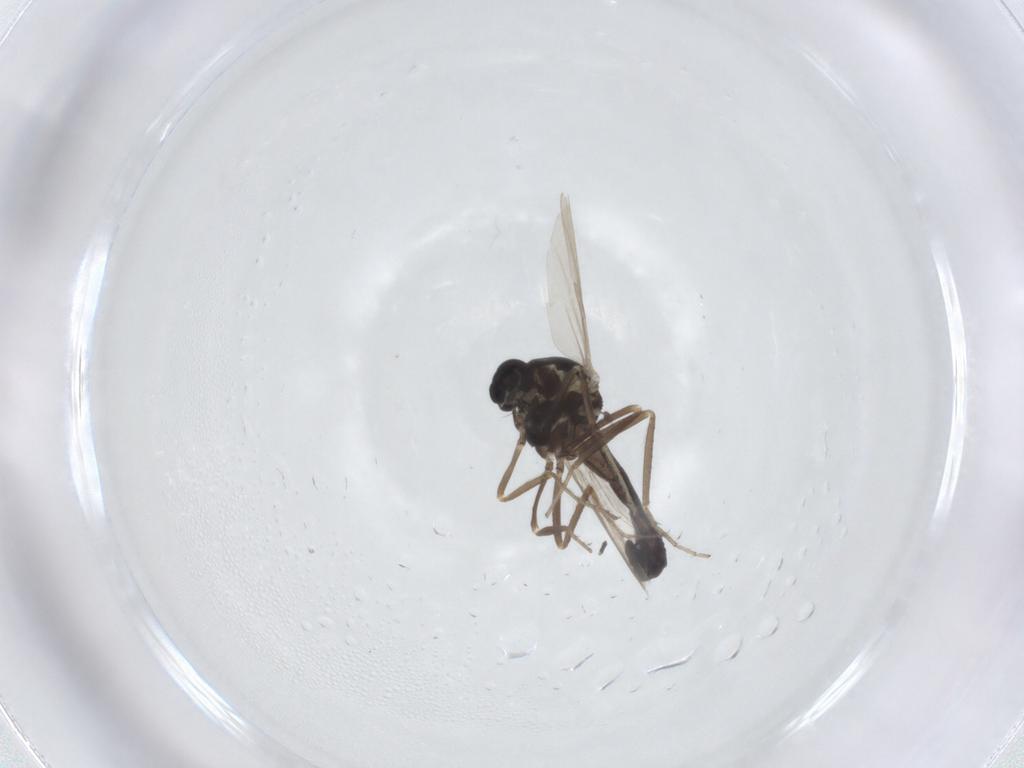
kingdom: Animalia
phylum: Arthropoda
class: Insecta
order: Diptera
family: Ceratopogonidae
